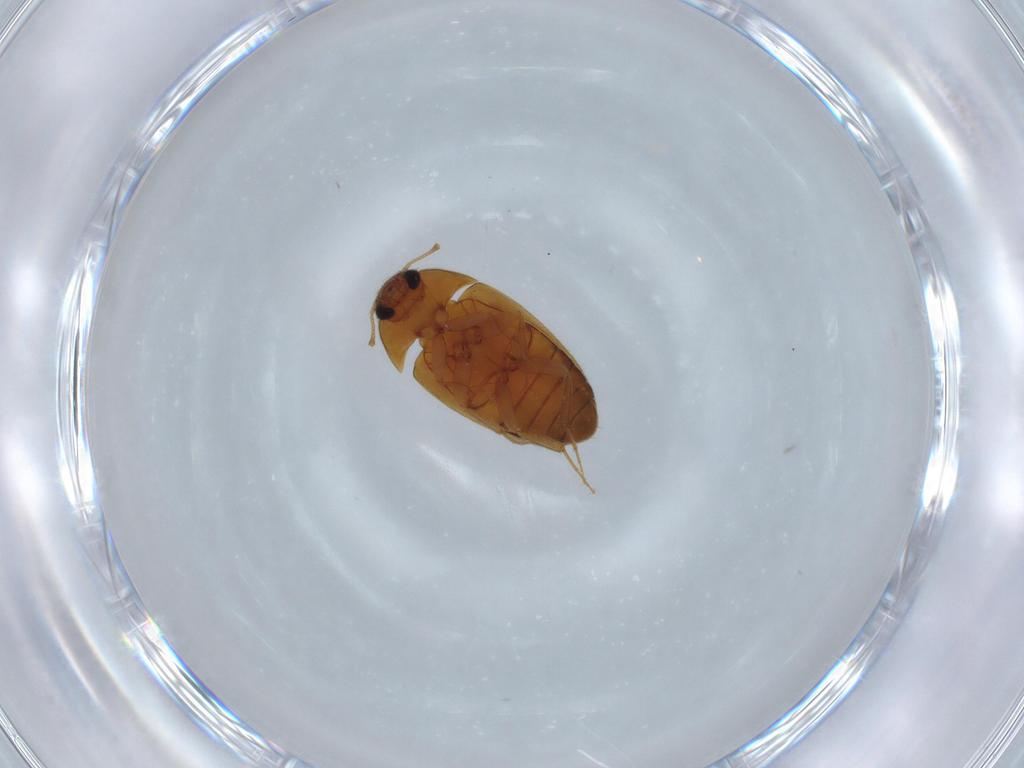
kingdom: Animalia
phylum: Arthropoda
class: Insecta
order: Coleoptera
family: Mycetophagidae
